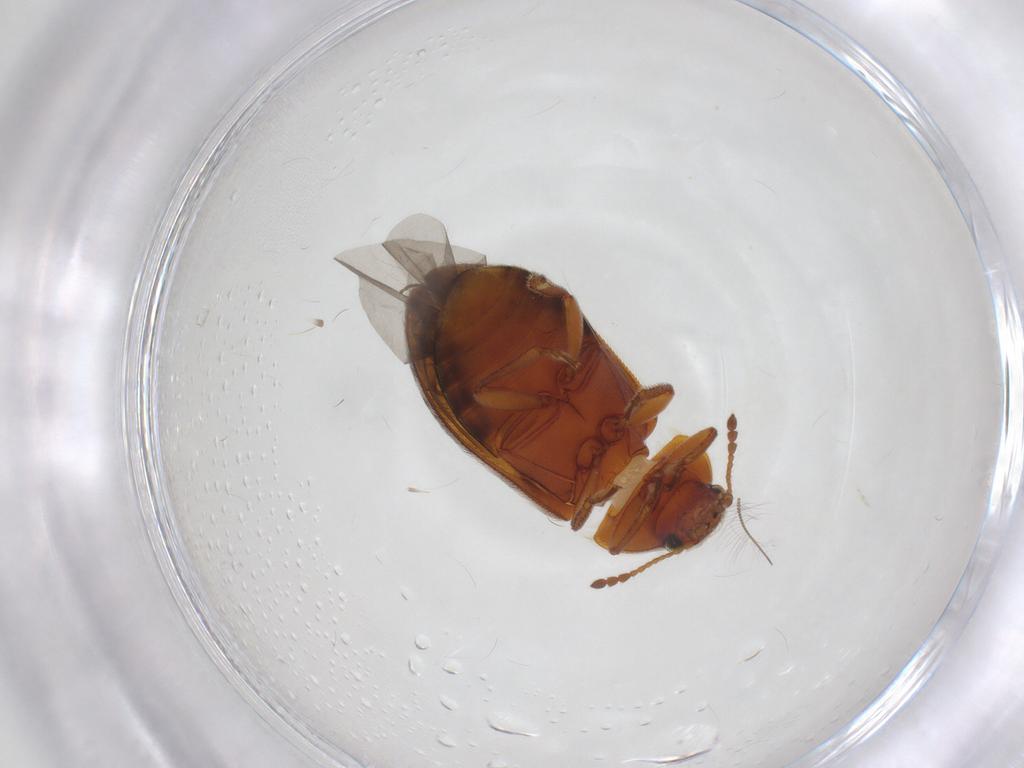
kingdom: Animalia
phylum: Arthropoda
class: Insecta
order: Coleoptera
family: Byturidae
